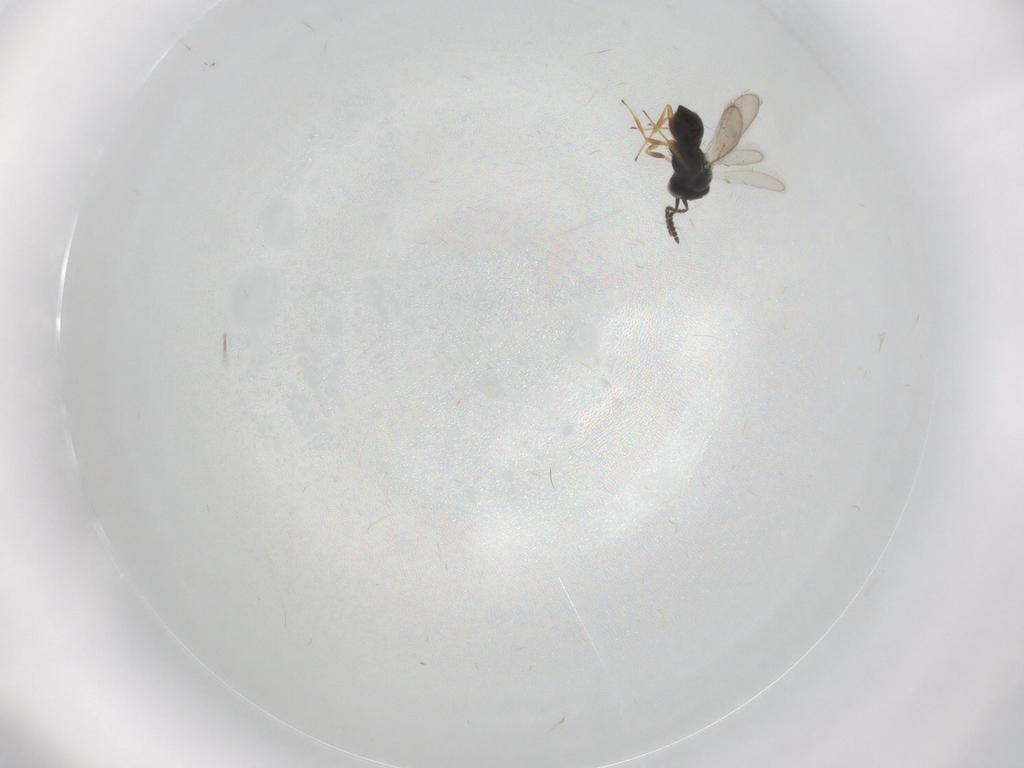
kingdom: Animalia
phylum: Arthropoda
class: Insecta
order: Hymenoptera
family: Scelionidae
